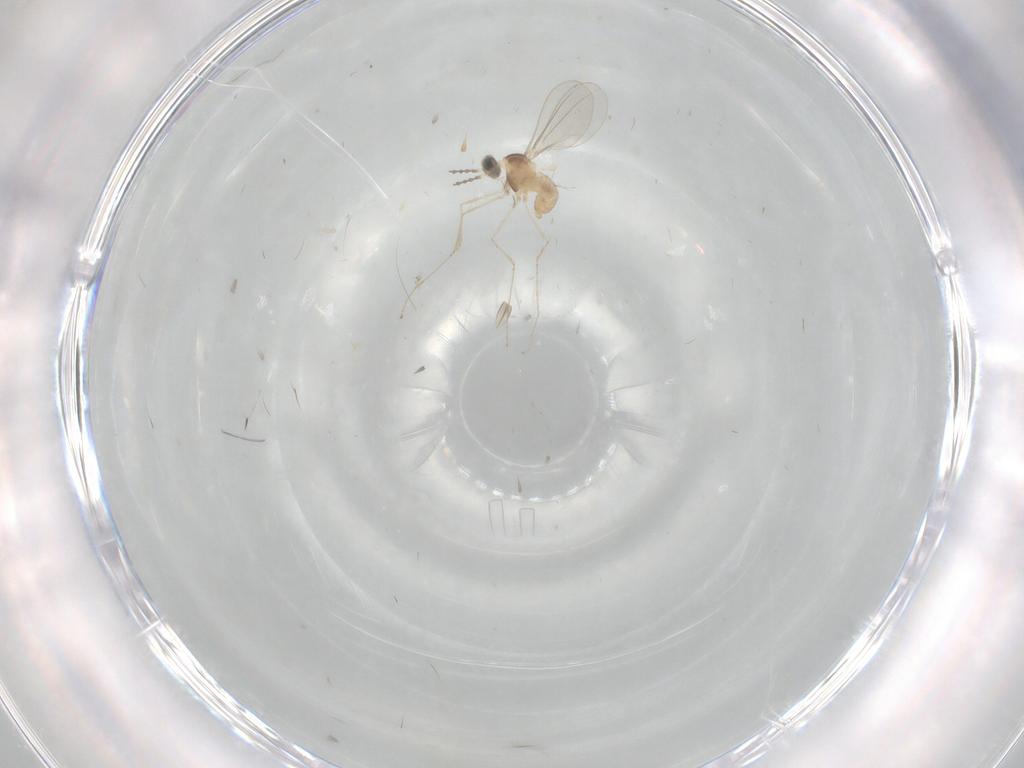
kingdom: Animalia
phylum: Arthropoda
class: Insecta
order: Diptera
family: Cecidomyiidae
